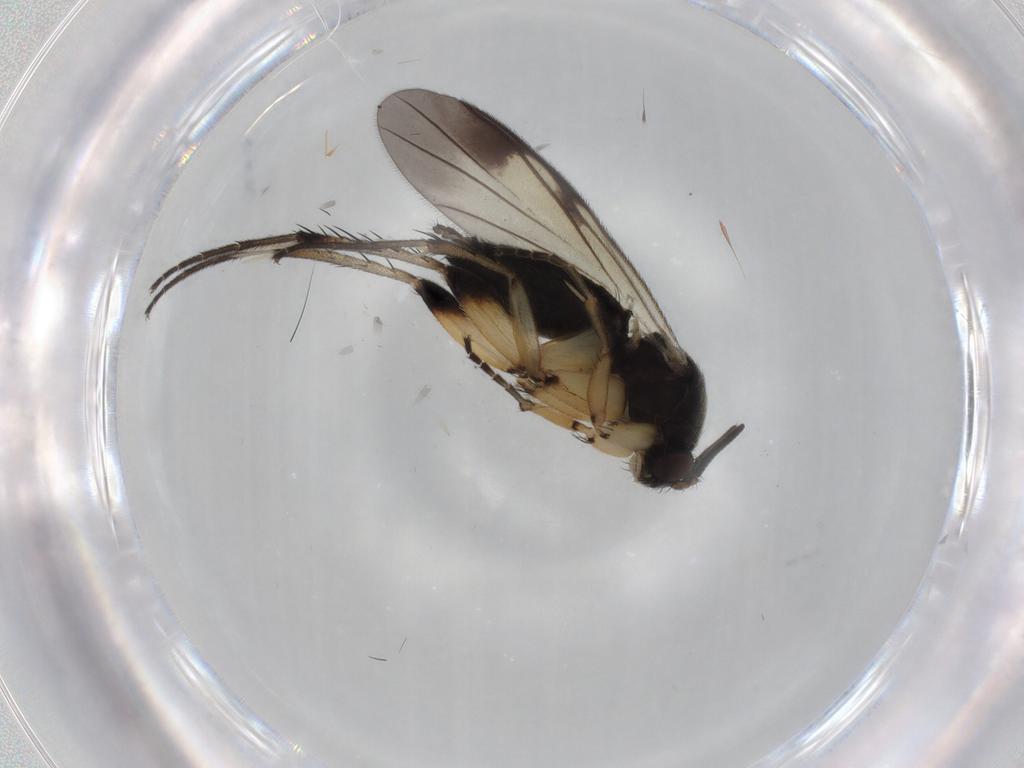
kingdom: Animalia
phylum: Arthropoda
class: Insecta
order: Diptera
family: Mycetophilidae
